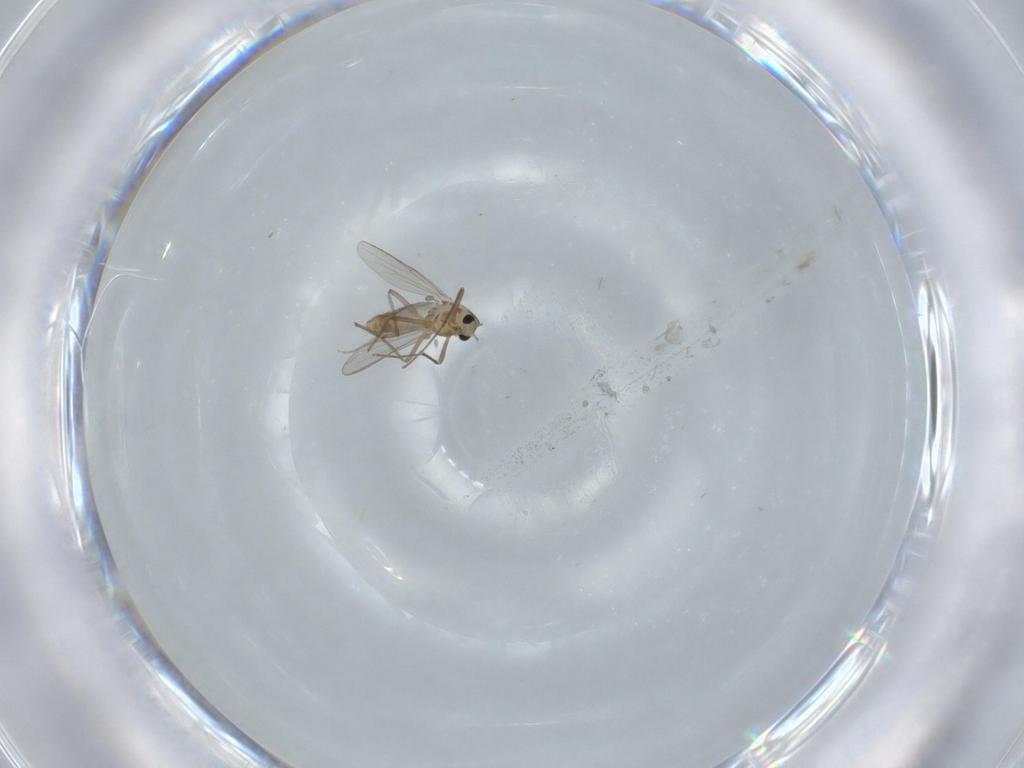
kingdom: Animalia
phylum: Arthropoda
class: Insecta
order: Diptera
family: Chironomidae
